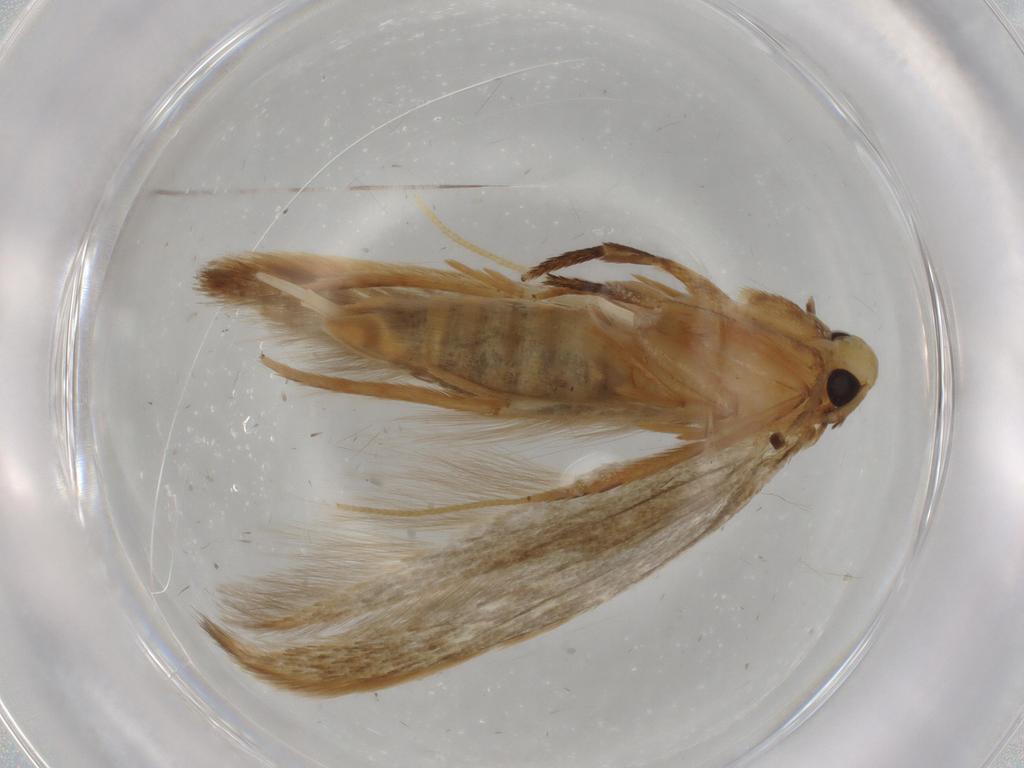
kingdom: Animalia
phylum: Arthropoda
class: Insecta
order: Lepidoptera
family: Tineidae
